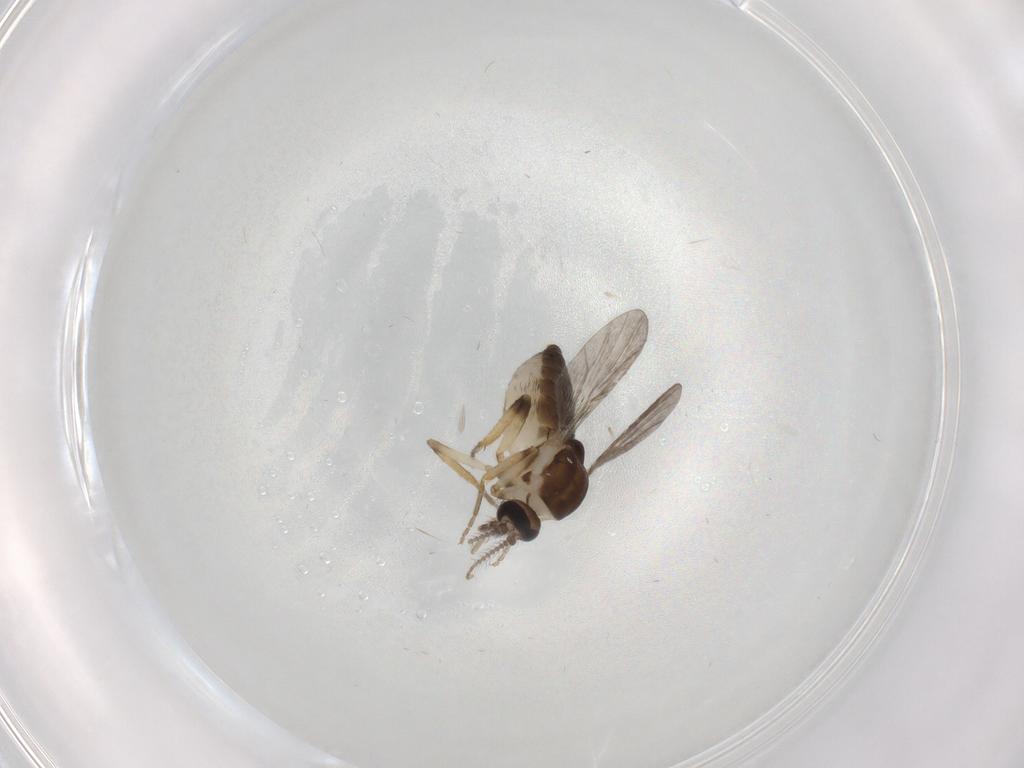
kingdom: Animalia
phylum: Arthropoda
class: Insecta
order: Diptera
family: Ceratopogonidae
